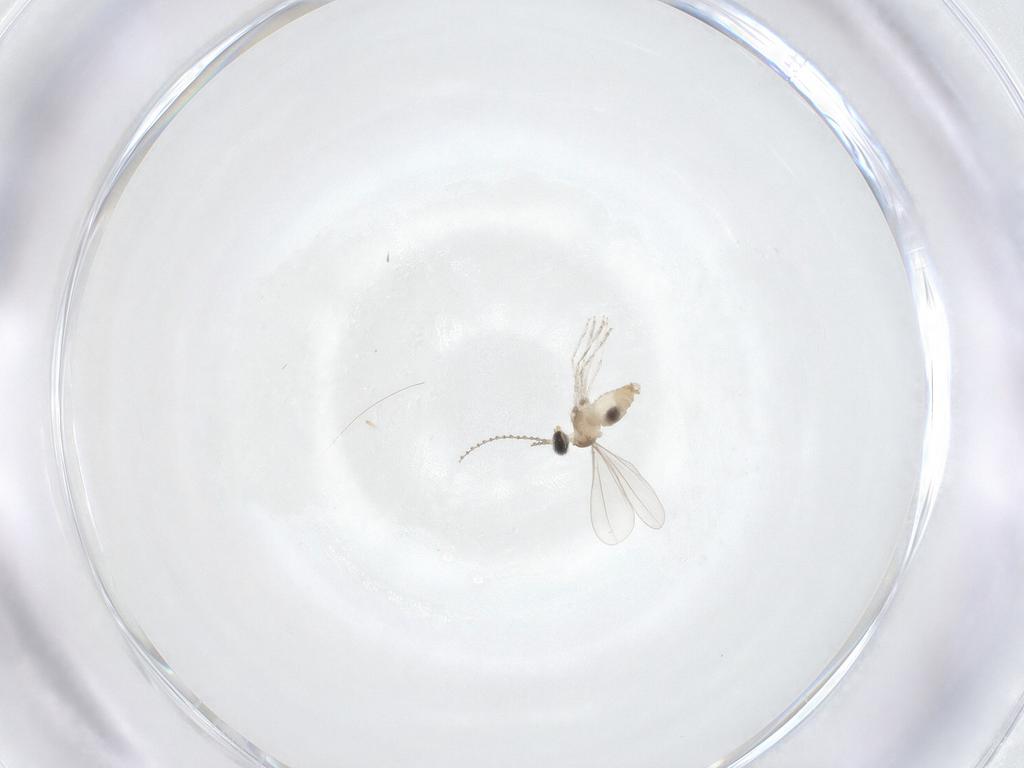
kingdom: Animalia
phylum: Arthropoda
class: Insecta
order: Diptera
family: Cecidomyiidae
